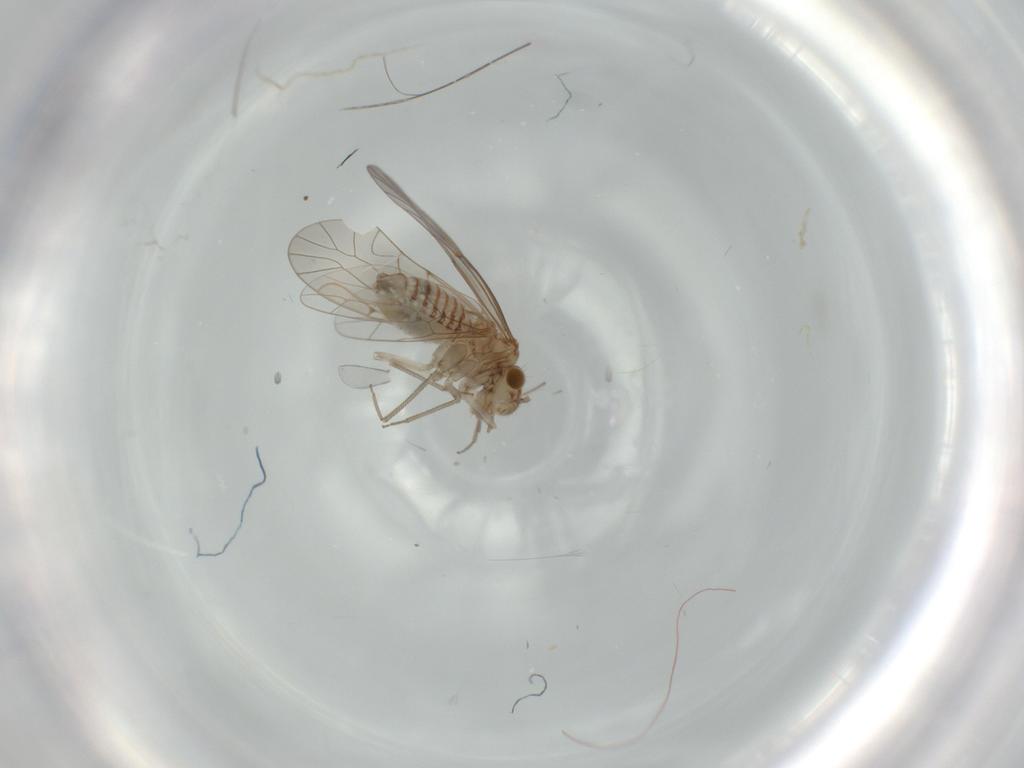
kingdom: Animalia
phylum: Arthropoda
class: Insecta
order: Psocodea
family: Lachesillidae
